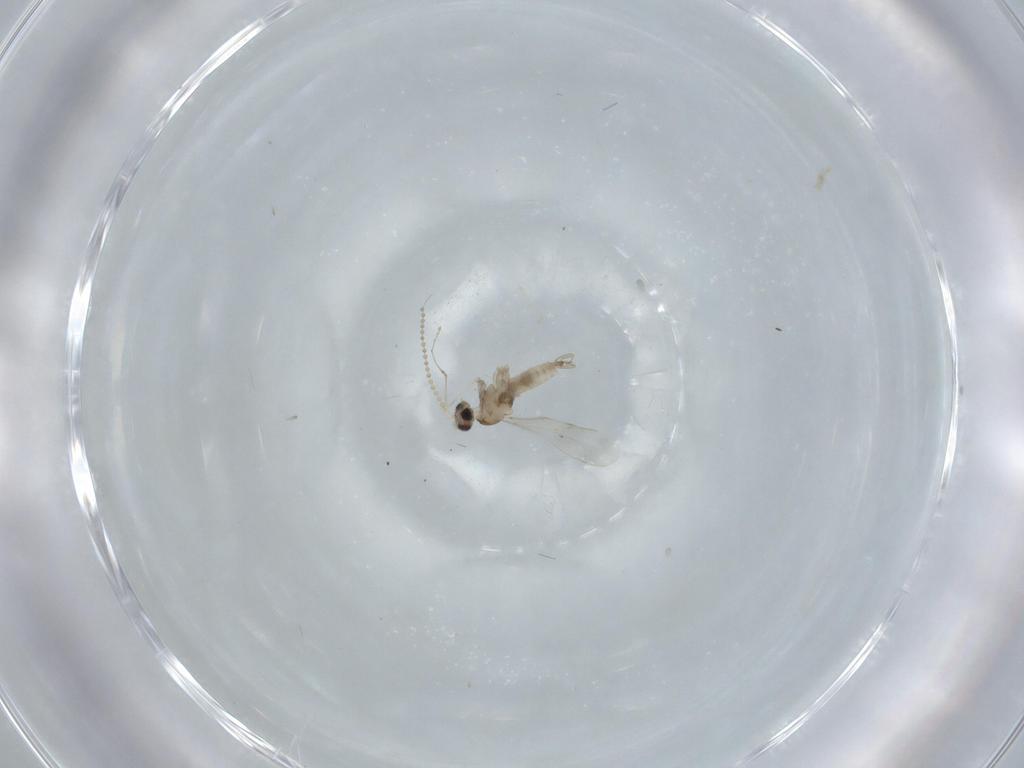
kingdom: Animalia
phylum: Arthropoda
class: Insecta
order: Diptera
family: Cecidomyiidae
